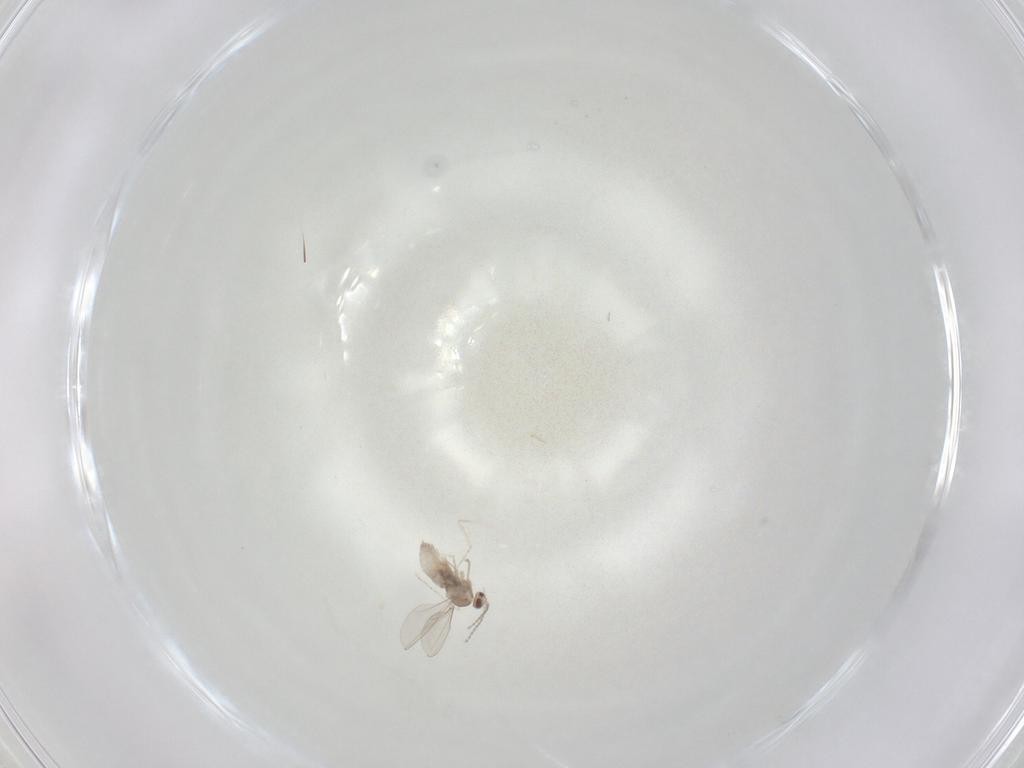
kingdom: Animalia
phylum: Arthropoda
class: Insecta
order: Diptera
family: Cecidomyiidae
